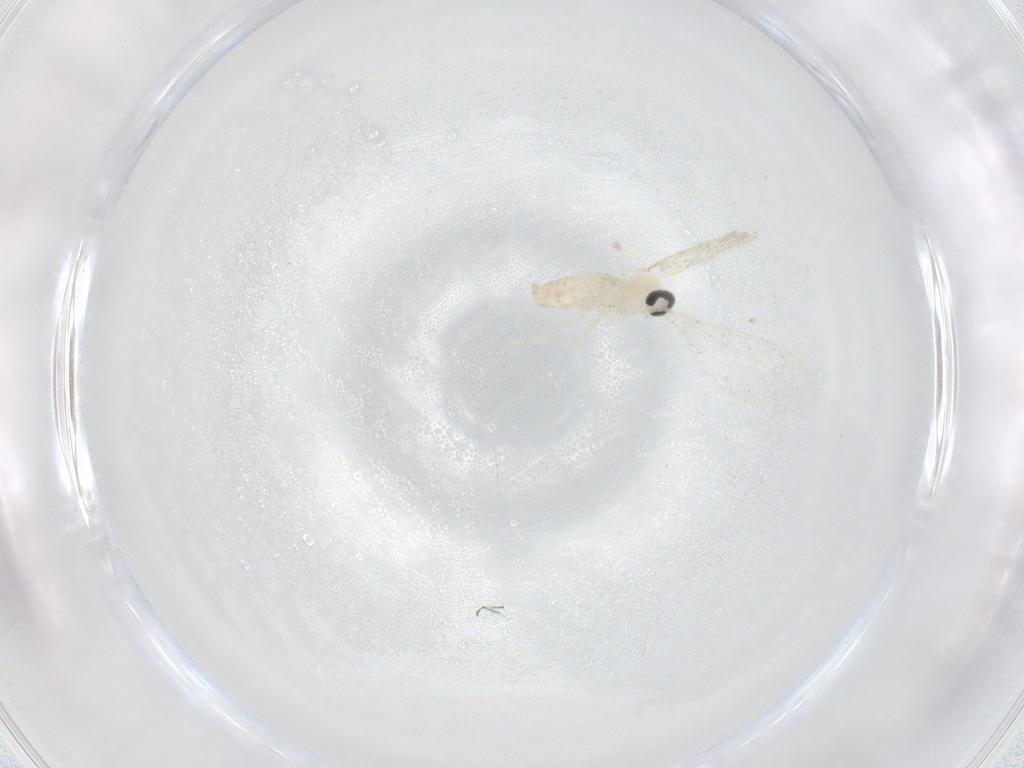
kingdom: Animalia
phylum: Arthropoda
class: Insecta
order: Diptera
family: Cecidomyiidae
